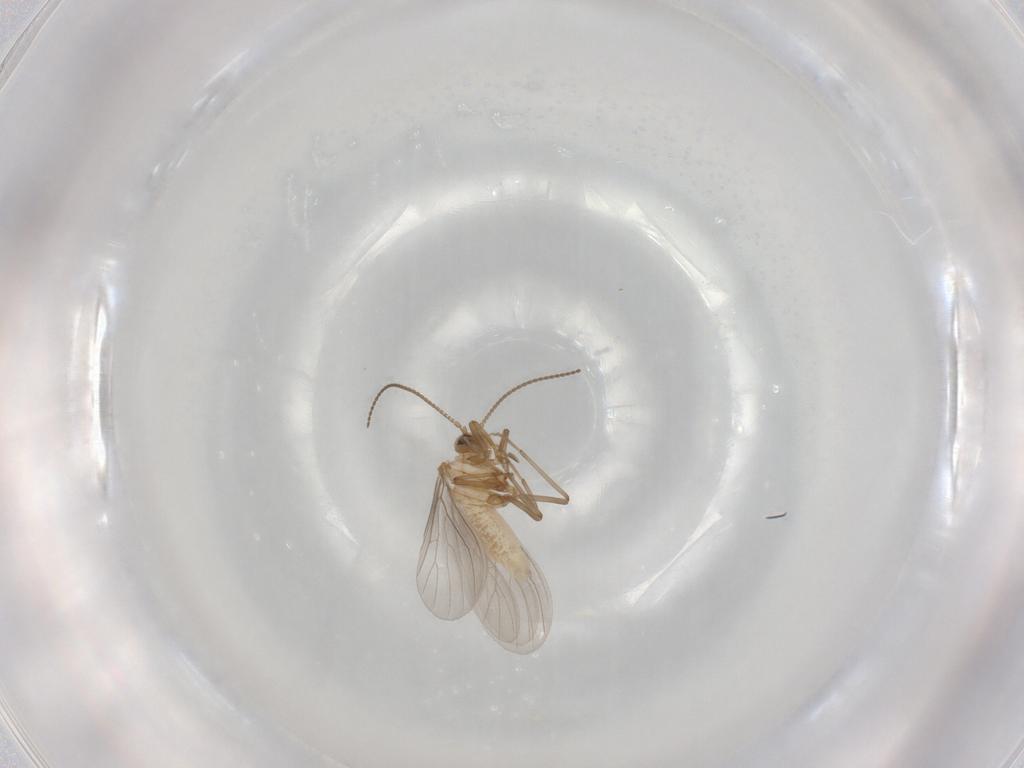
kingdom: Animalia
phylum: Arthropoda
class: Insecta
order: Neuroptera
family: Coniopterygidae
